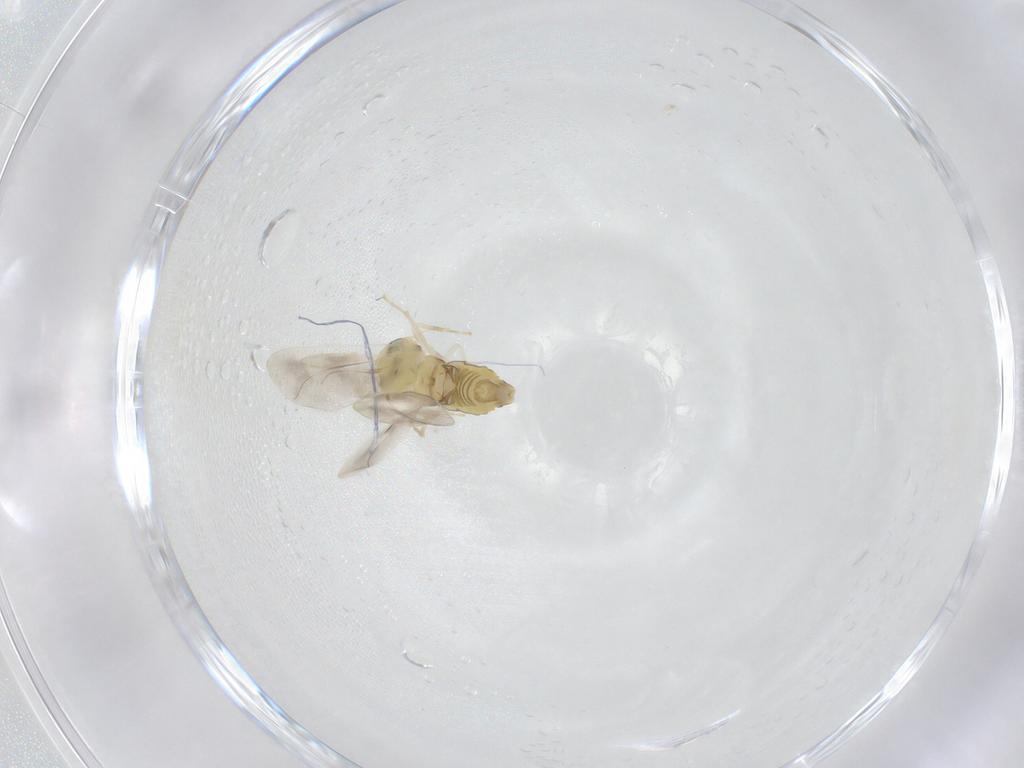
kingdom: Animalia
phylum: Arthropoda
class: Insecta
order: Hemiptera
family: Aleyrodidae
